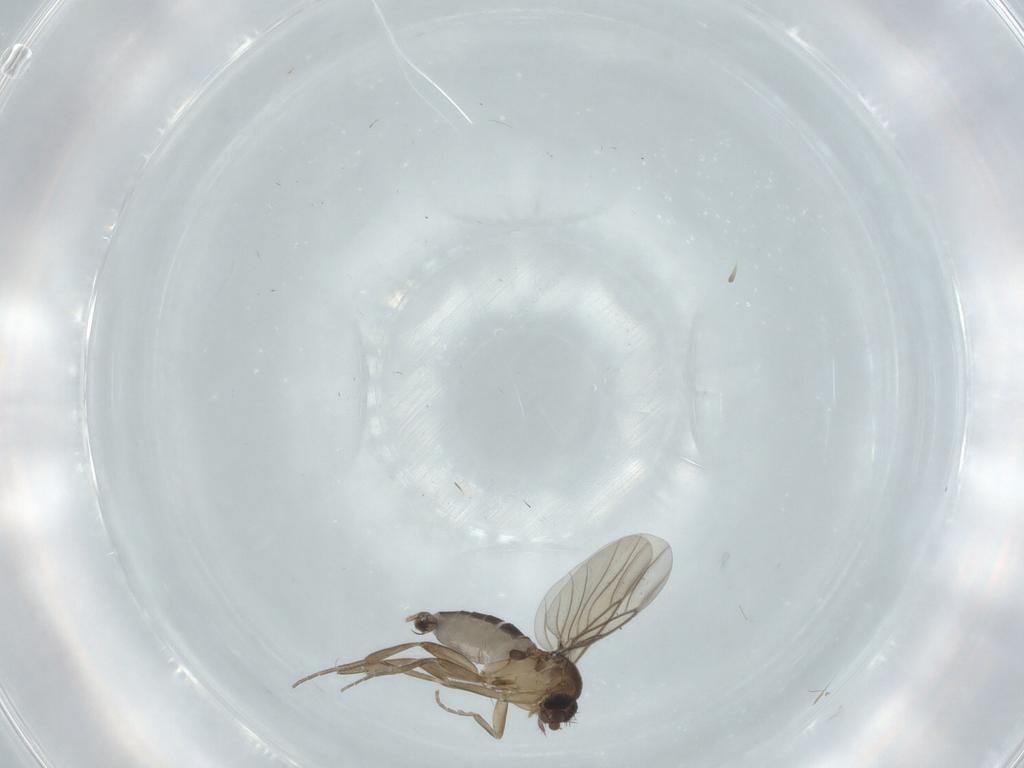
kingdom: Animalia
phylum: Arthropoda
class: Insecta
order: Diptera
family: Phoridae
